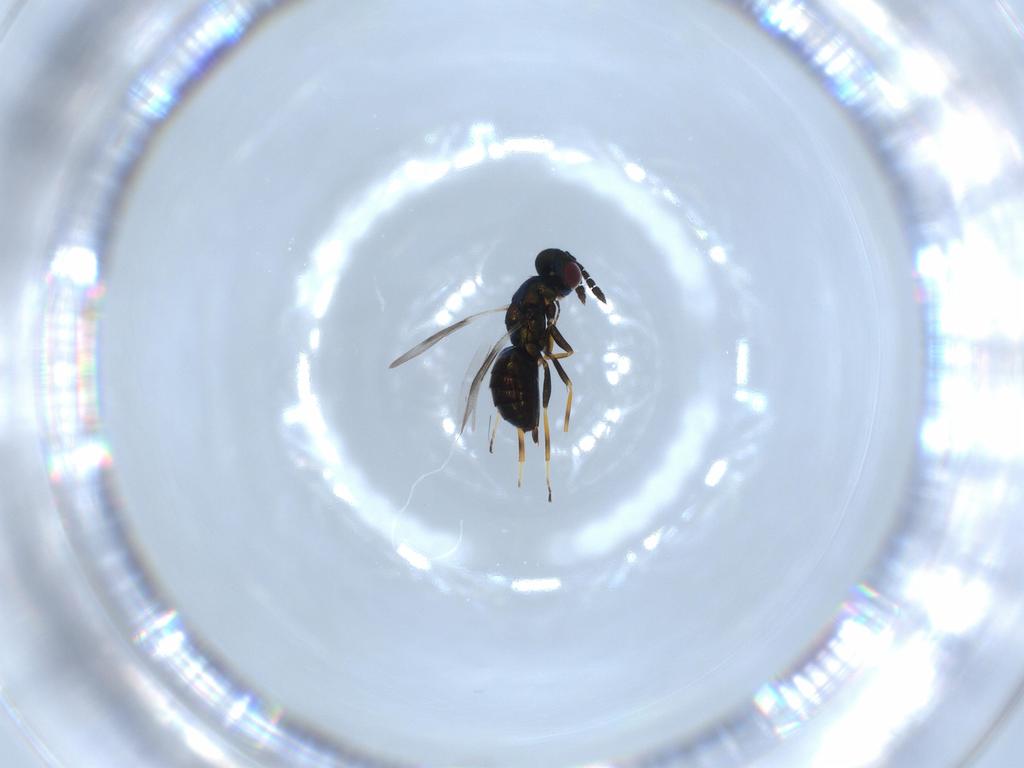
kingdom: Animalia
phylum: Arthropoda
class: Insecta
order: Hymenoptera
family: Eulophidae
